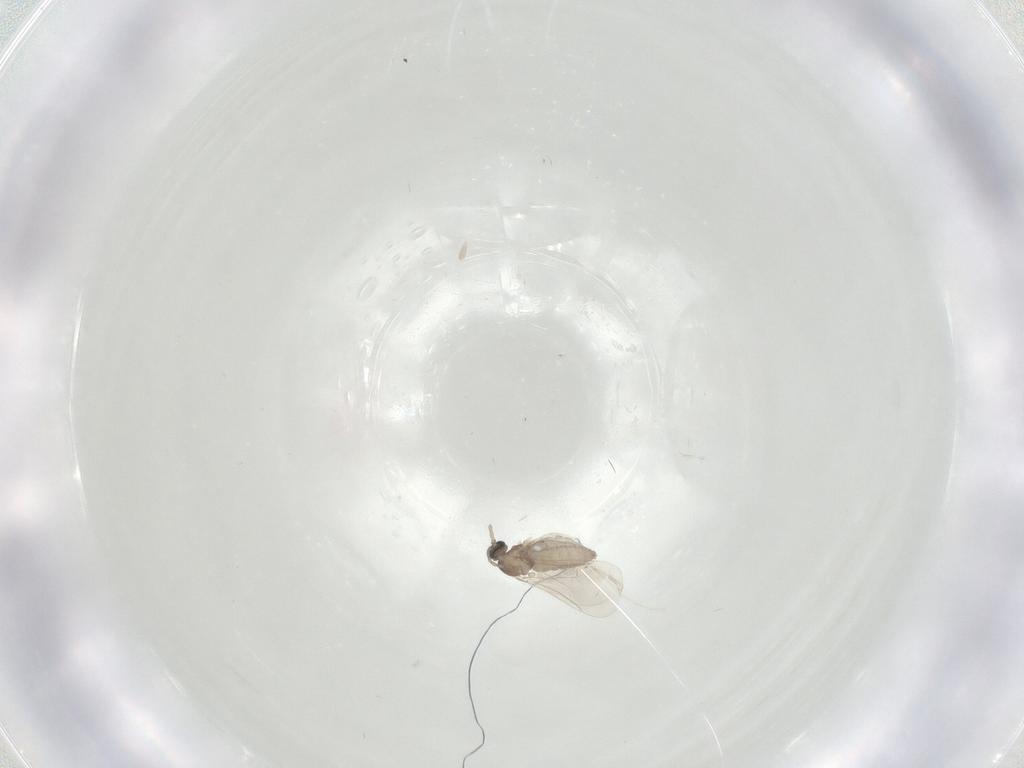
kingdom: Animalia
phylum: Arthropoda
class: Insecta
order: Diptera
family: Cecidomyiidae
